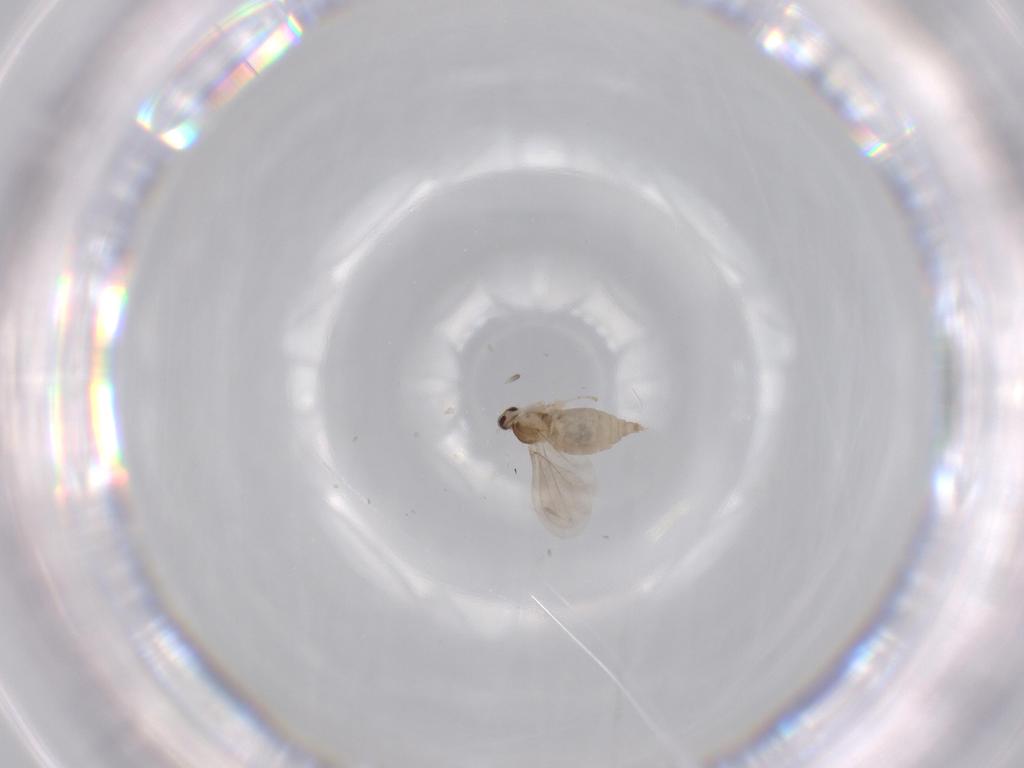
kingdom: Animalia
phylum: Arthropoda
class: Insecta
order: Diptera
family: Cecidomyiidae
